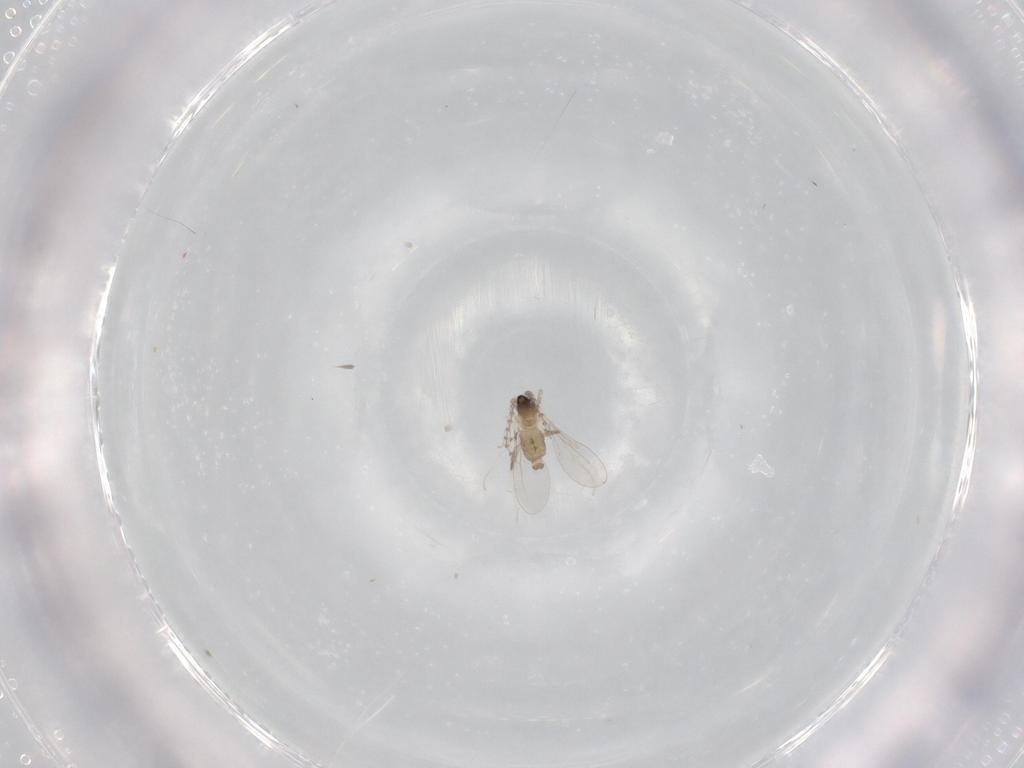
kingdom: Animalia
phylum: Arthropoda
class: Insecta
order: Diptera
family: Cecidomyiidae
